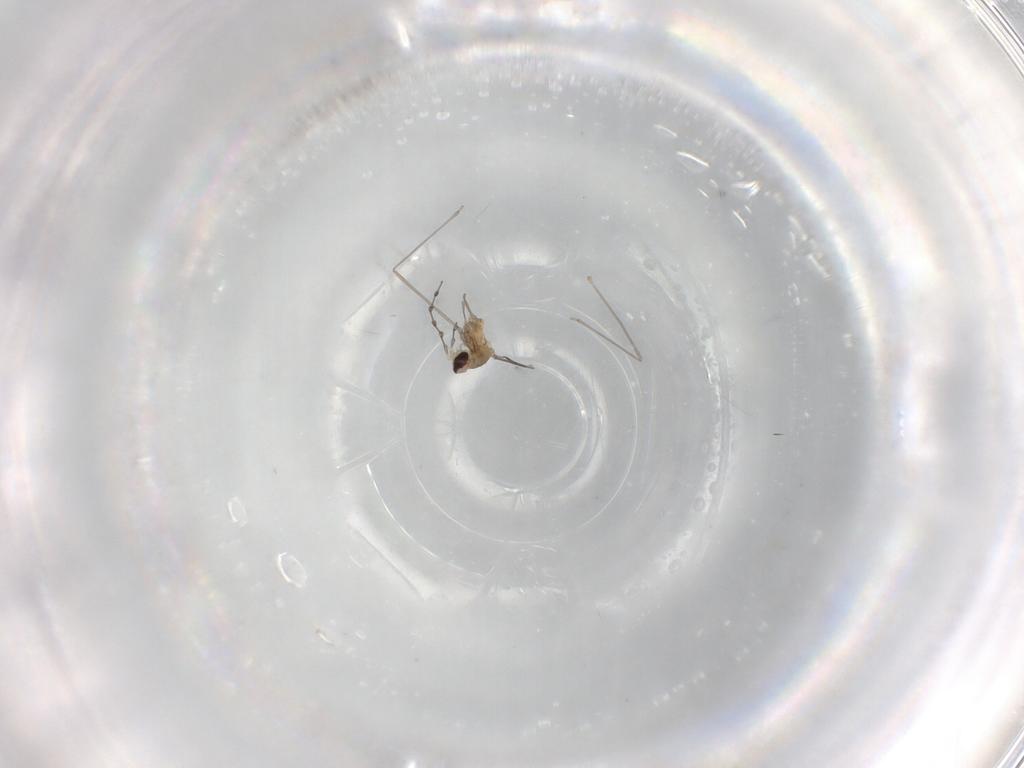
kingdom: Animalia
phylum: Arthropoda
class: Insecta
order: Diptera
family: Cecidomyiidae
